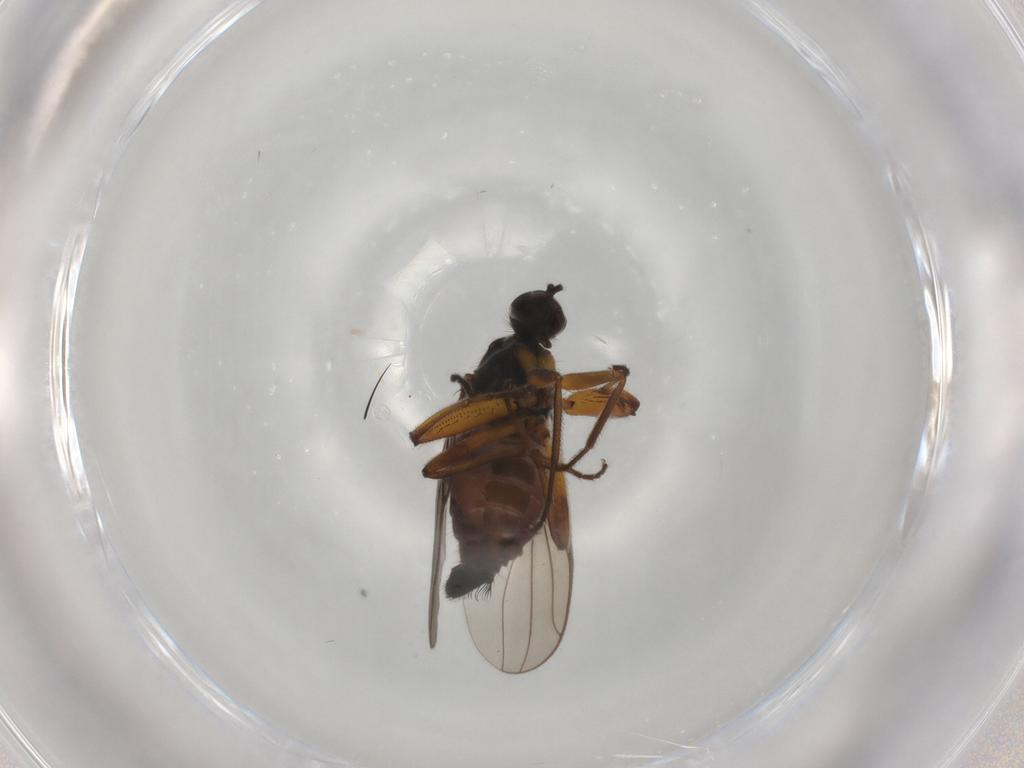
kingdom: Animalia
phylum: Arthropoda
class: Insecta
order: Diptera
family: Hybotidae
